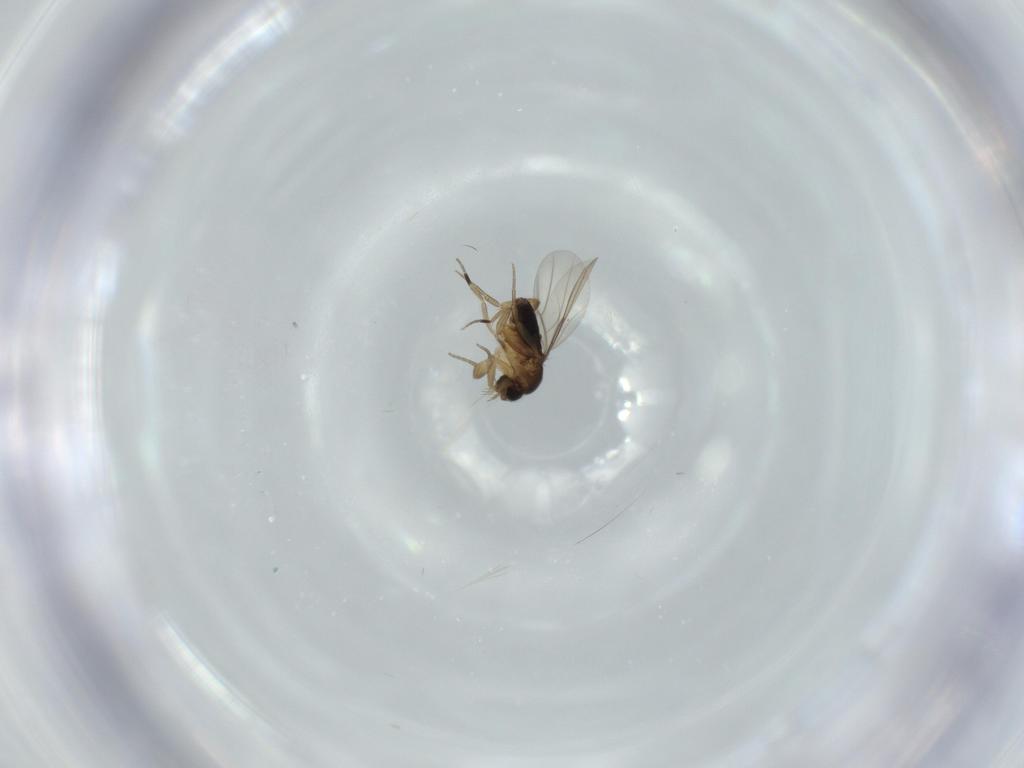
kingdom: Animalia
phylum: Arthropoda
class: Insecta
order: Diptera
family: Phoridae
